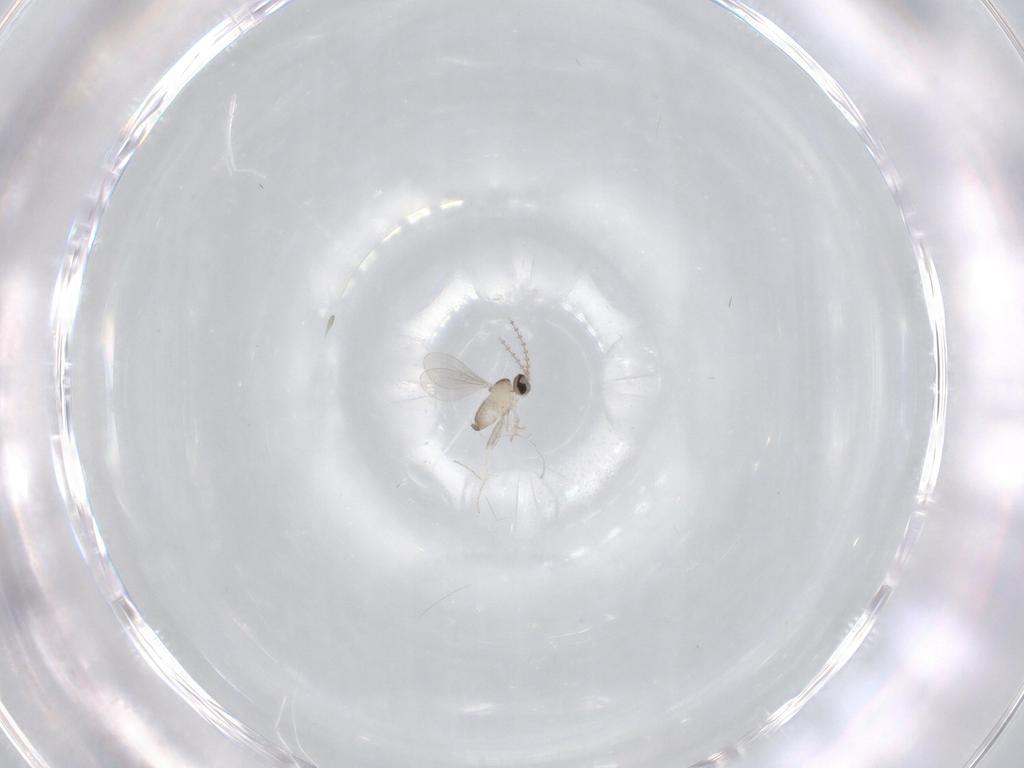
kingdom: Animalia
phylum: Arthropoda
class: Insecta
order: Diptera
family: Cecidomyiidae
